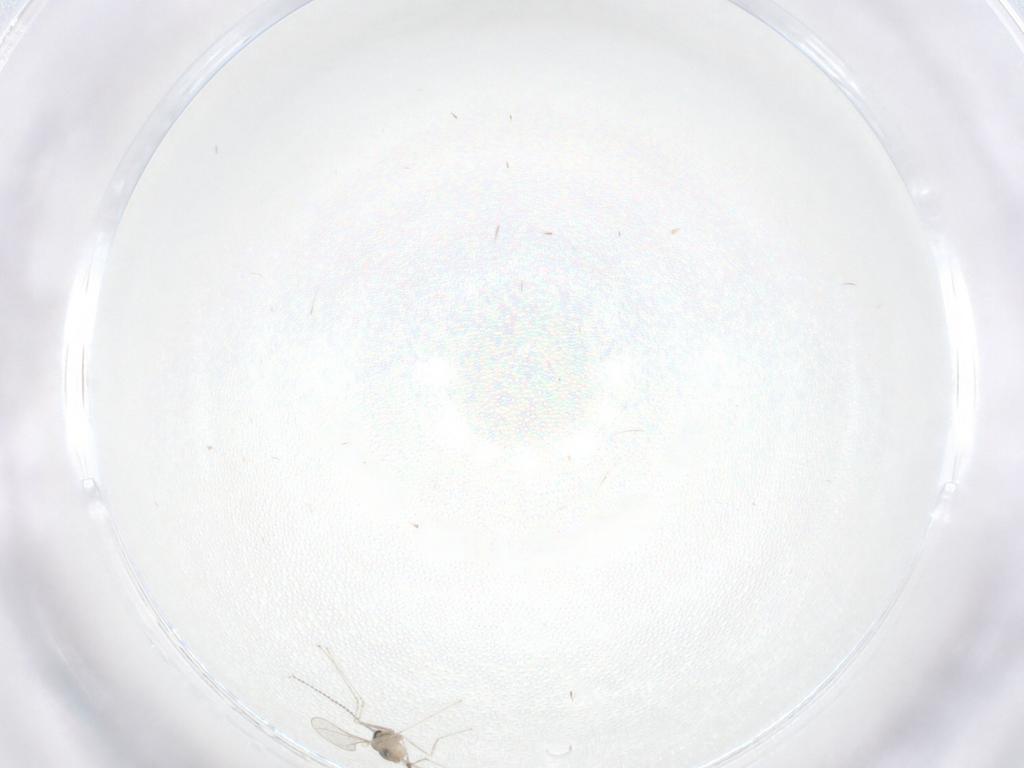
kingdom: Animalia
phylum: Arthropoda
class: Insecta
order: Diptera
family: Cecidomyiidae
